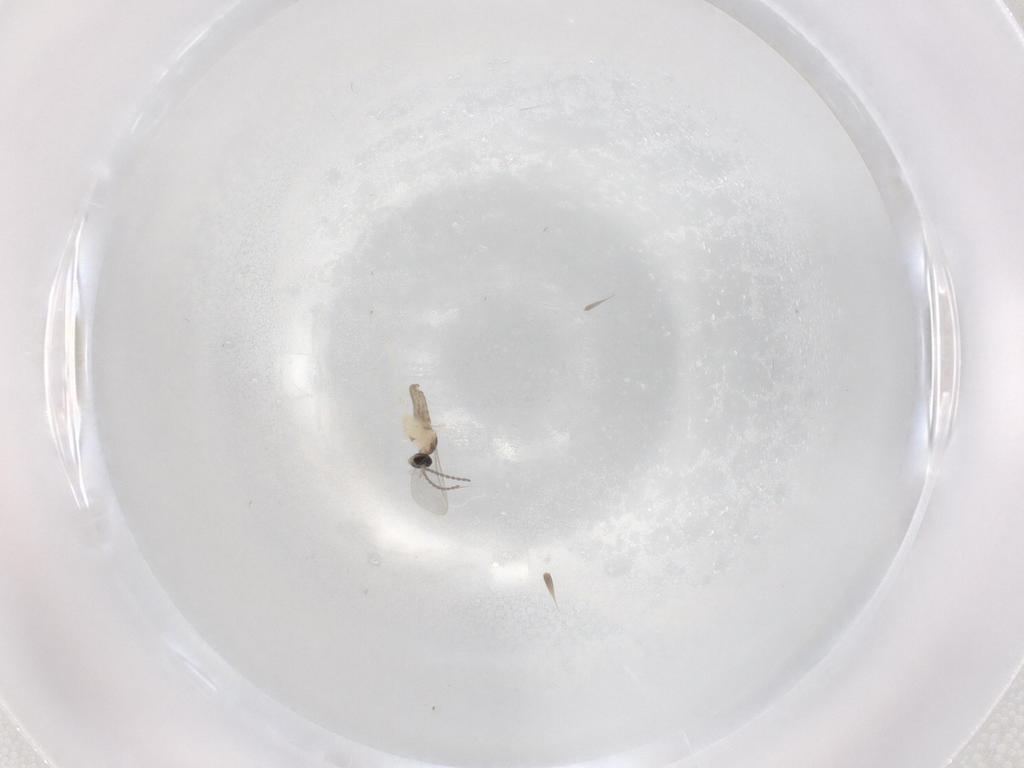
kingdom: Animalia
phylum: Arthropoda
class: Insecta
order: Diptera
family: Cecidomyiidae
